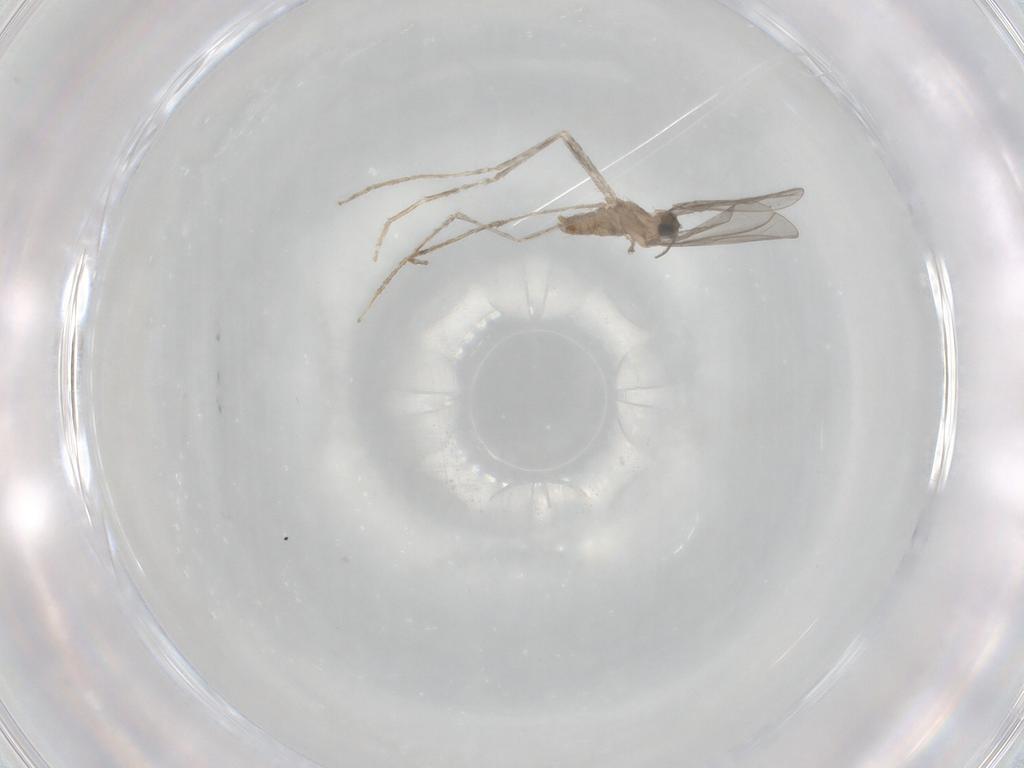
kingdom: Animalia
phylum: Arthropoda
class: Insecta
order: Diptera
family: Cecidomyiidae
